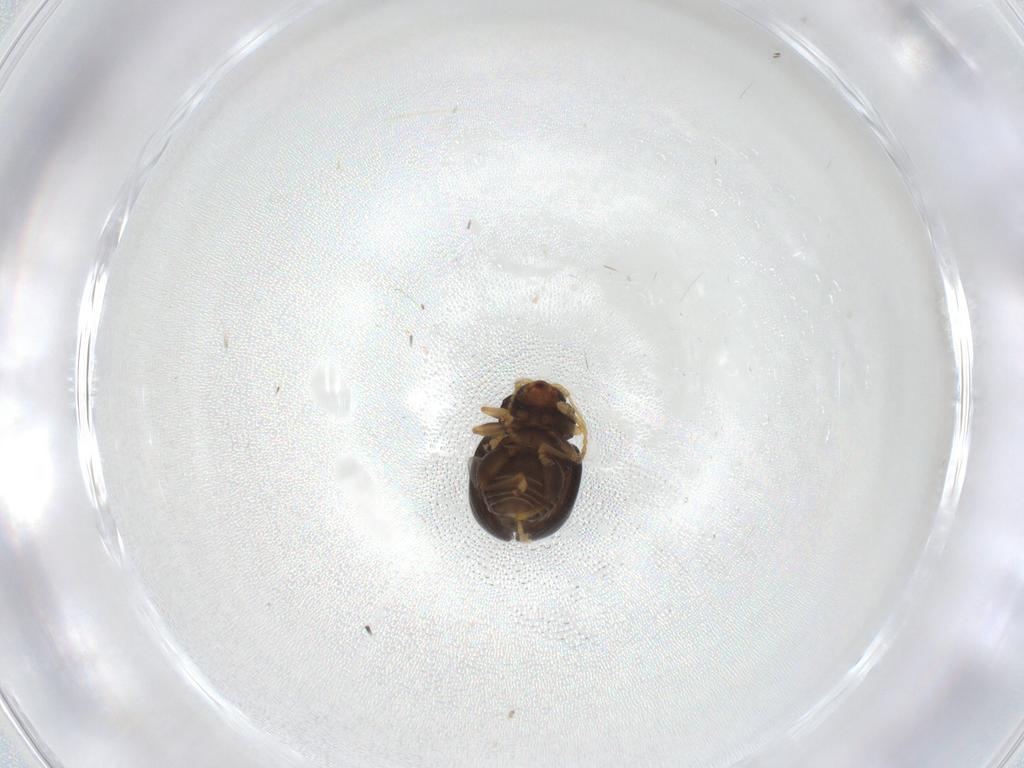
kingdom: Animalia
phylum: Arthropoda
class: Insecta
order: Coleoptera
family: Chrysomelidae
